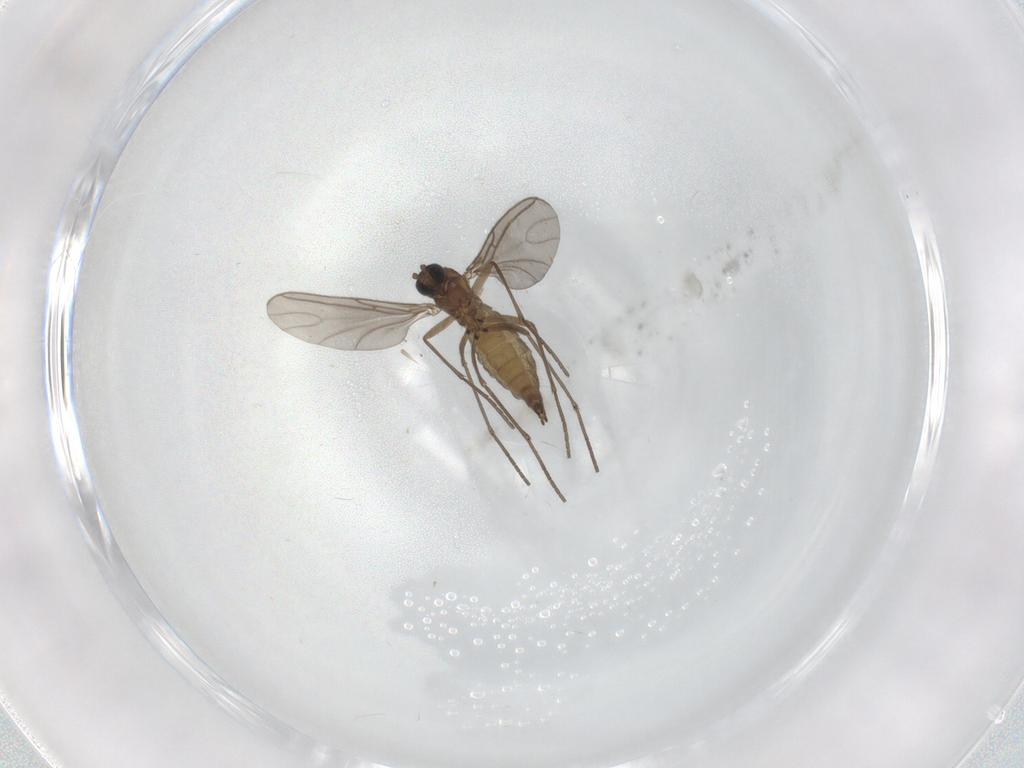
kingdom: Animalia
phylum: Arthropoda
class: Insecta
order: Diptera
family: Sciaridae
